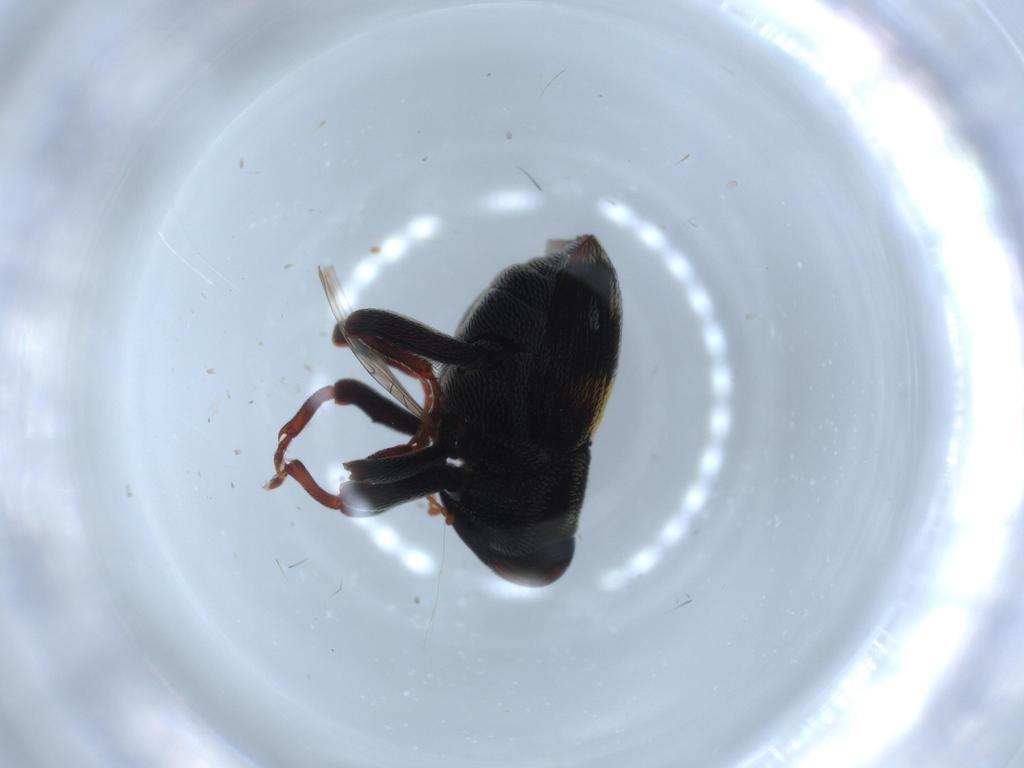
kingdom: Animalia
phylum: Arthropoda
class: Insecta
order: Coleoptera
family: Curculionidae
